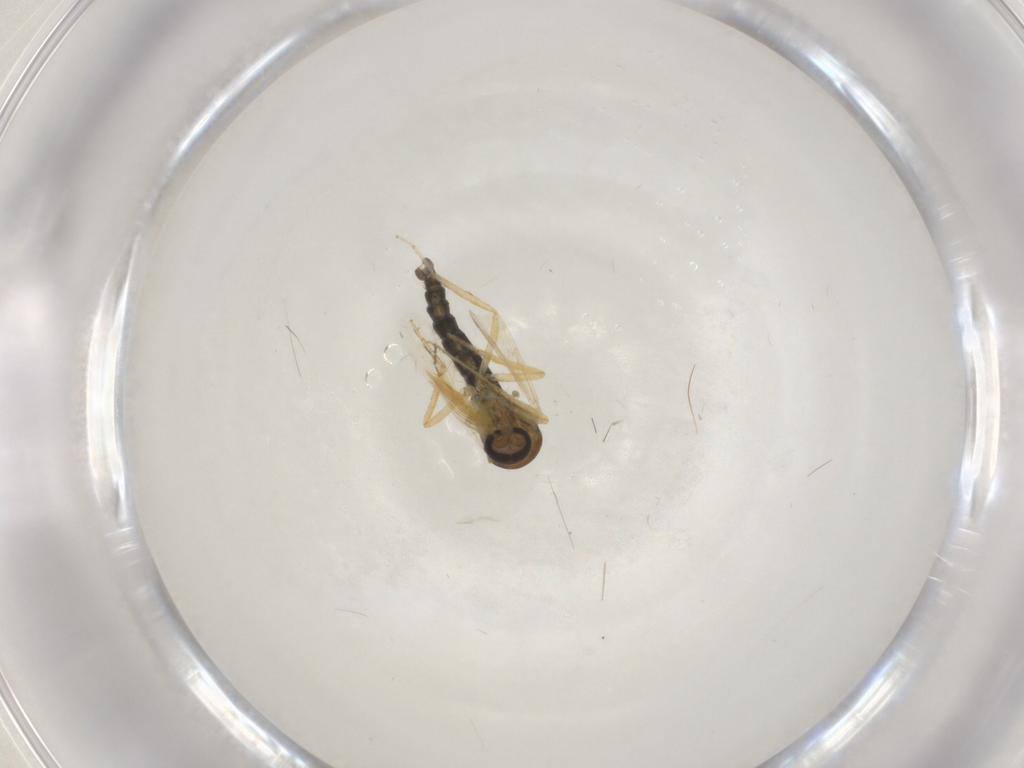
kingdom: Animalia
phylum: Arthropoda
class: Insecta
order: Diptera
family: Ceratopogonidae
